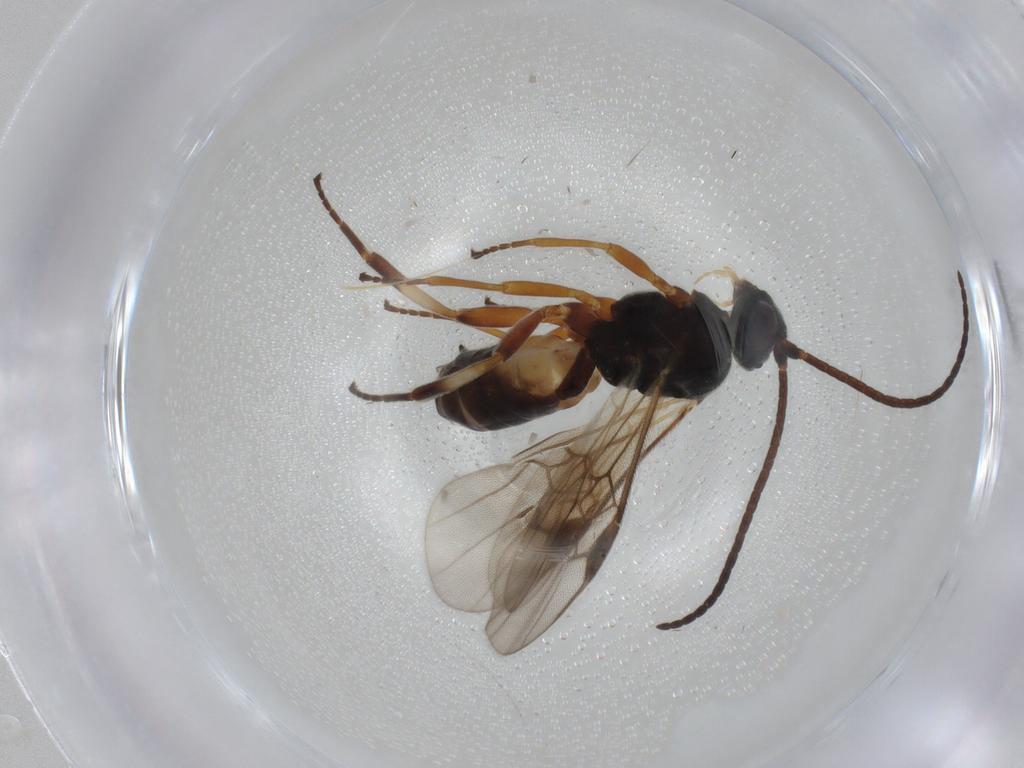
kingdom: Animalia
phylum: Arthropoda
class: Insecta
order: Hymenoptera
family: Braconidae
